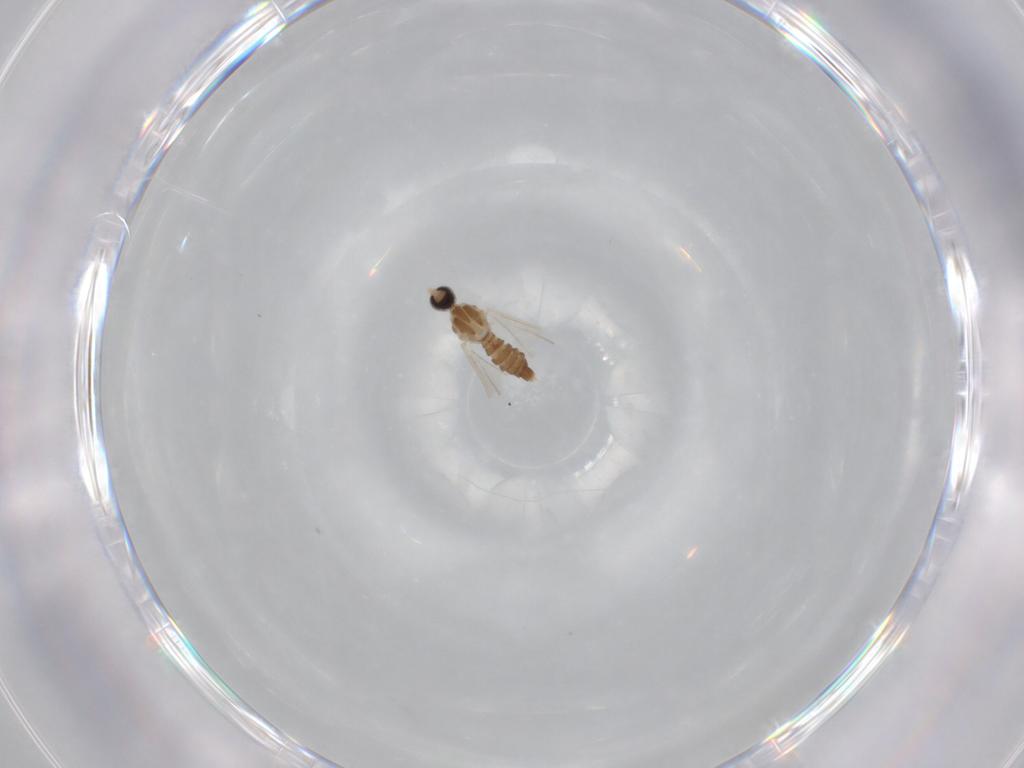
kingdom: Animalia
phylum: Arthropoda
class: Insecta
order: Diptera
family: Cecidomyiidae
